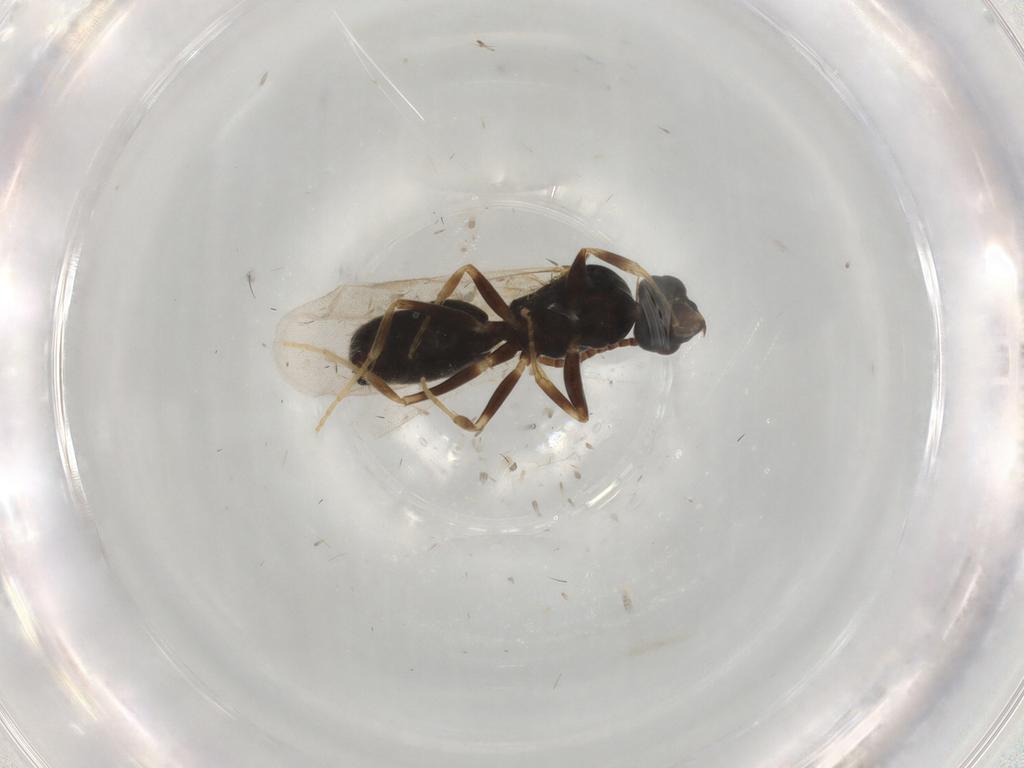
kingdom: Animalia
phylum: Arthropoda
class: Insecta
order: Hymenoptera
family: Formicidae
